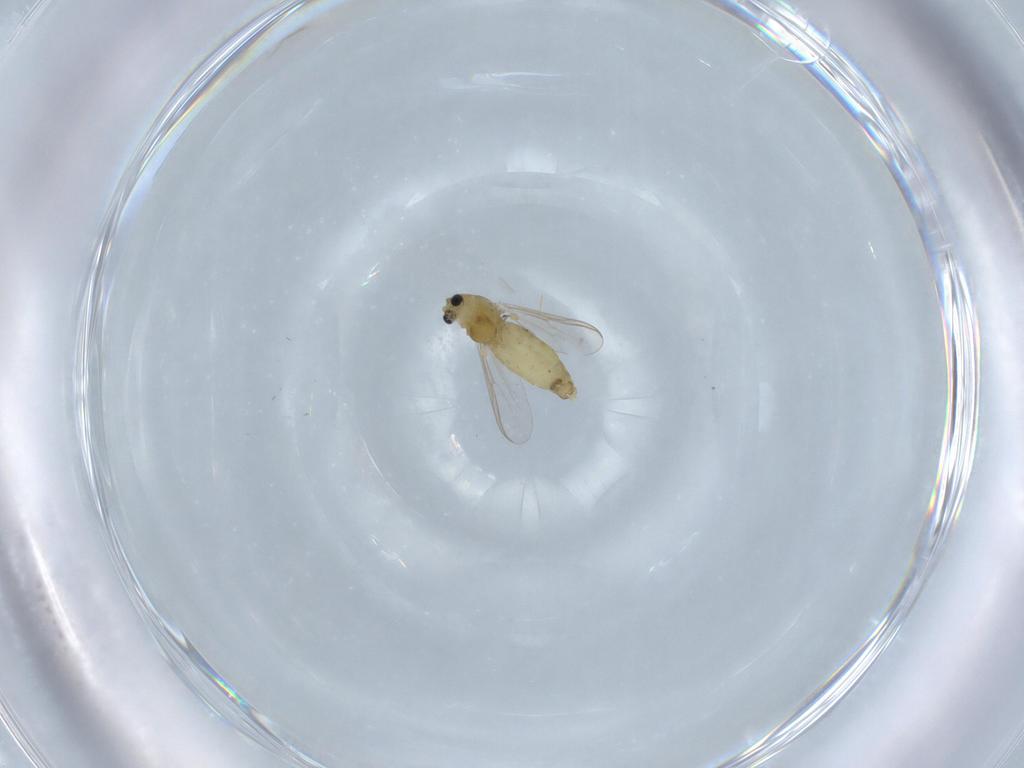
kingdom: Animalia
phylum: Arthropoda
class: Insecta
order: Diptera
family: Chironomidae
